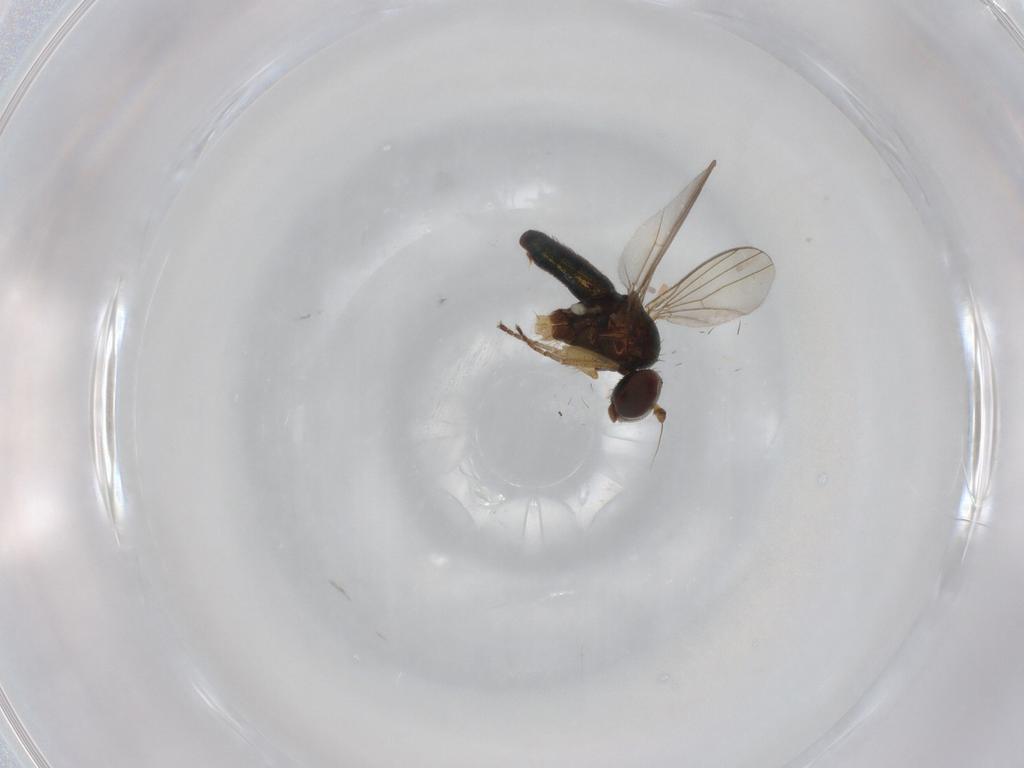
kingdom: Animalia
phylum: Arthropoda
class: Insecta
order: Diptera
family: Dolichopodidae
